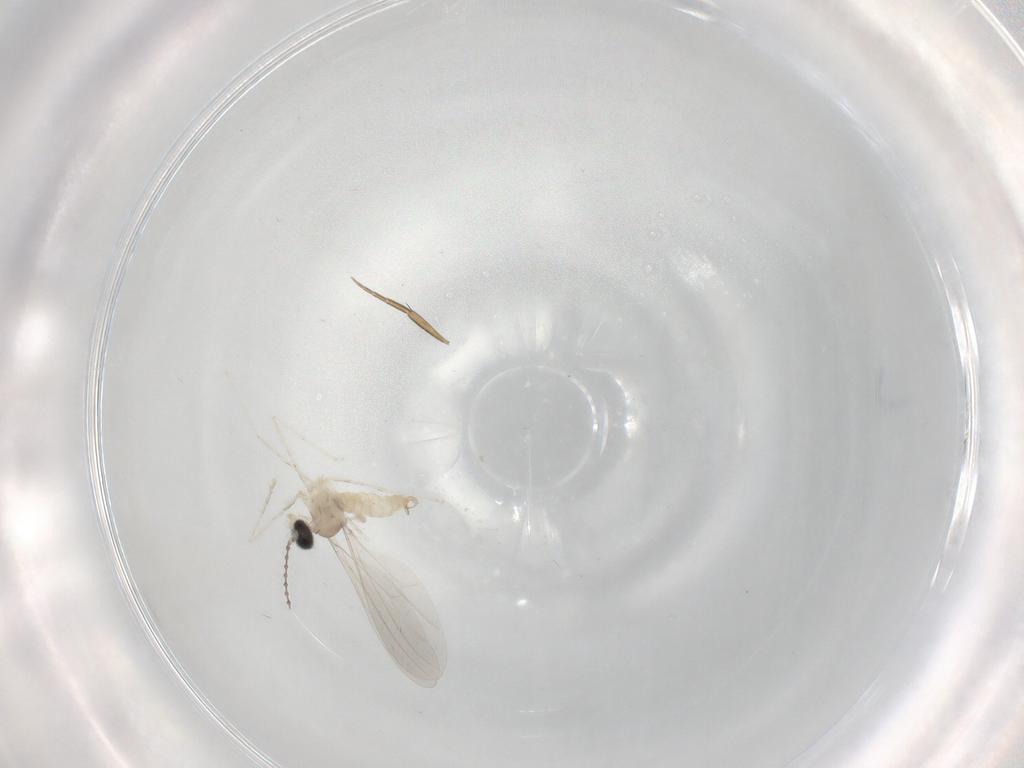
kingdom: Animalia
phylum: Arthropoda
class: Insecta
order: Diptera
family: Cecidomyiidae
